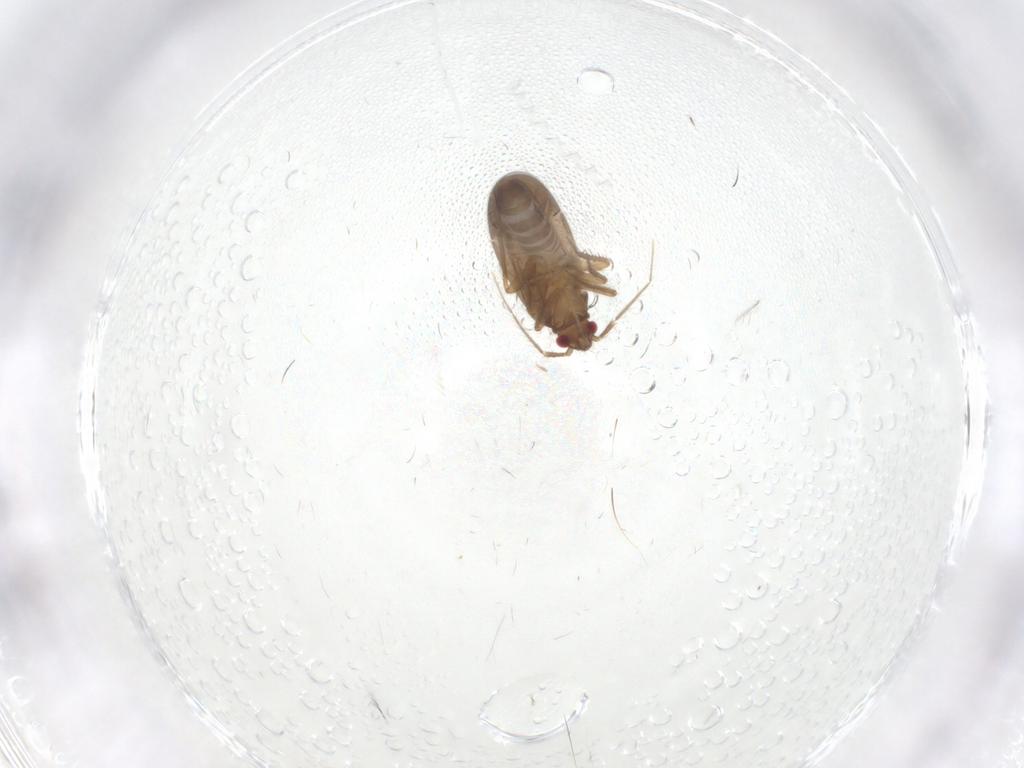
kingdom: Animalia
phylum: Arthropoda
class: Insecta
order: Hemiptera
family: Ceratocombidae
